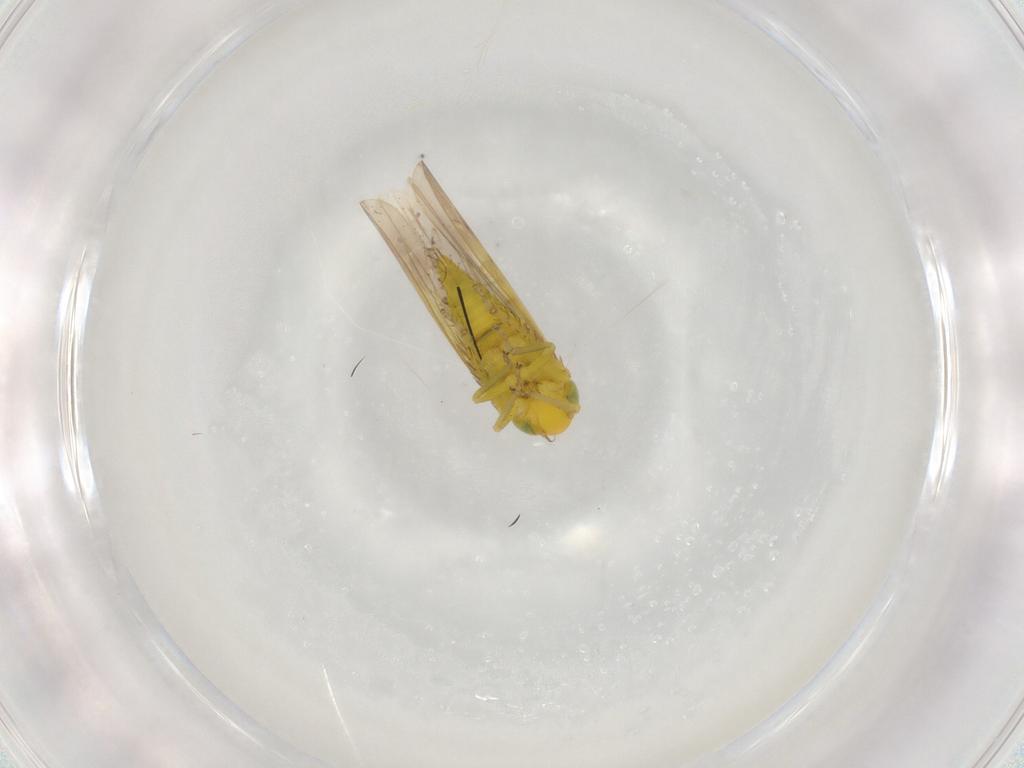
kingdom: Animalia
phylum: Arthropoda
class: Insecta
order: Hemiptera
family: Cicadellidae
